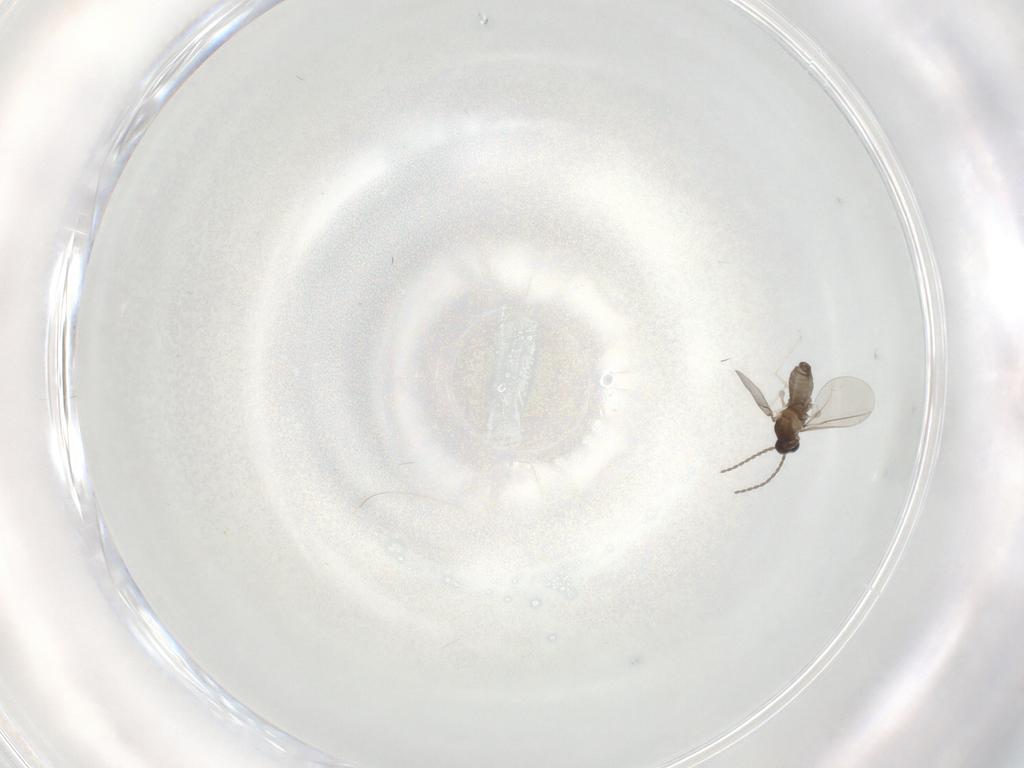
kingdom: Animalia
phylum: Arthropoda
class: Insecta
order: Diptera
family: Cecidomyiidae
